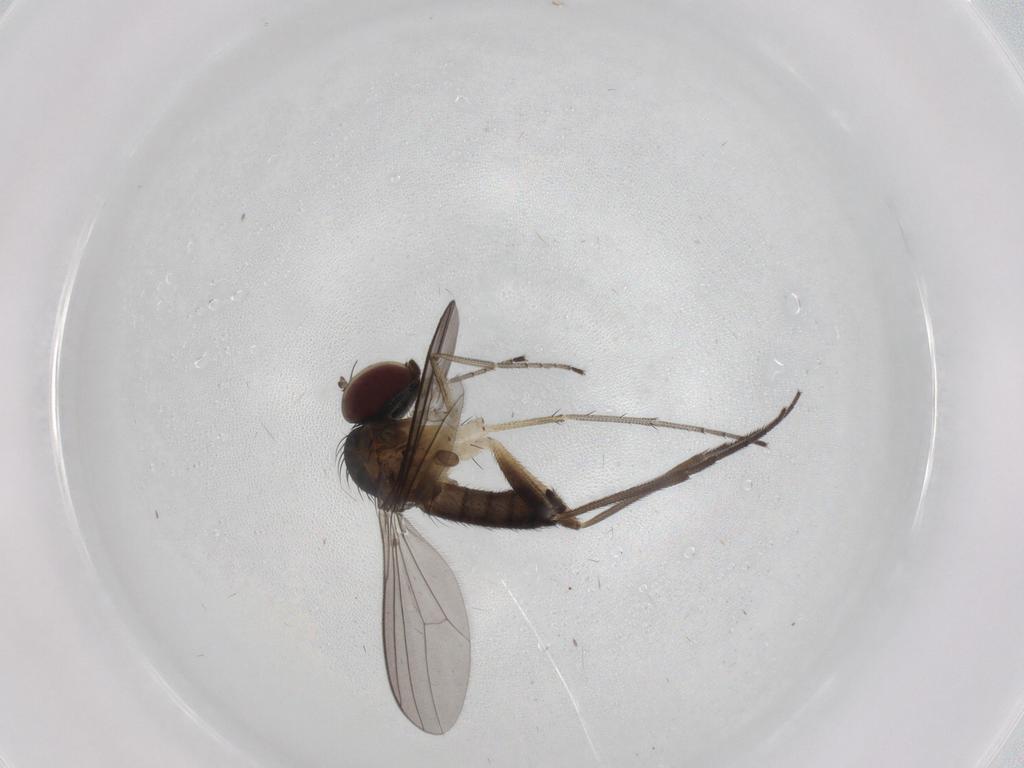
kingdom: Animalia
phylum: Arthropoda
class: Insecta
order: Diptera
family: Dolichopodidae
